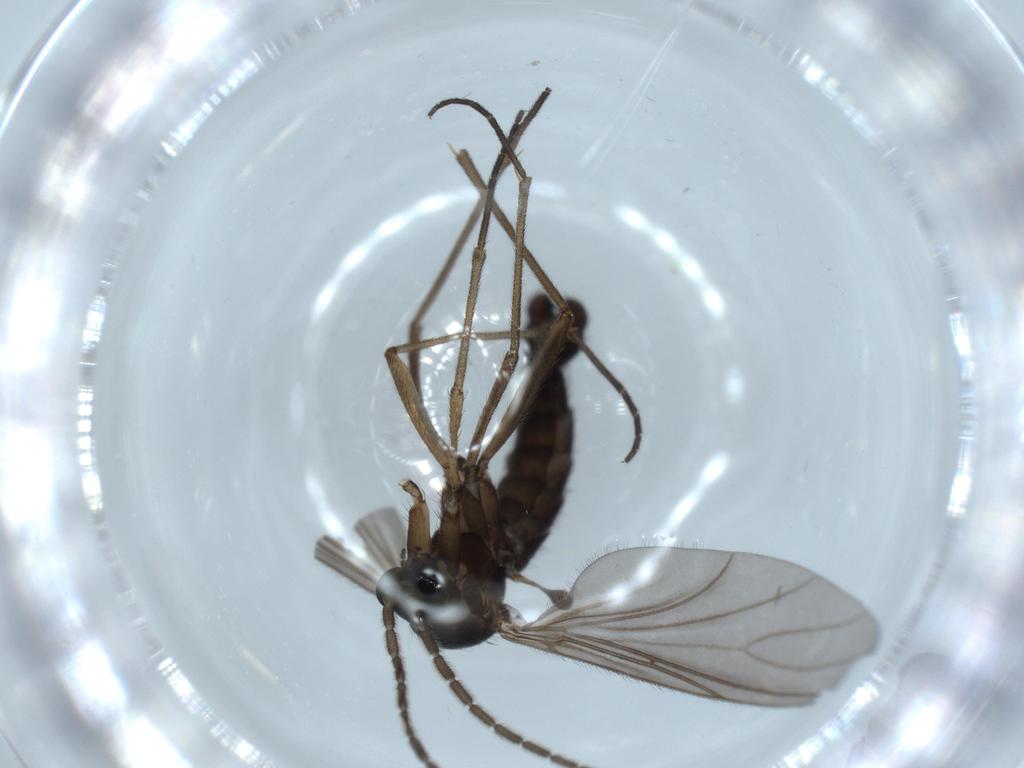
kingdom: Animalia
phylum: Arthropoda
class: Insecta
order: Diptera
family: Sciaridae
